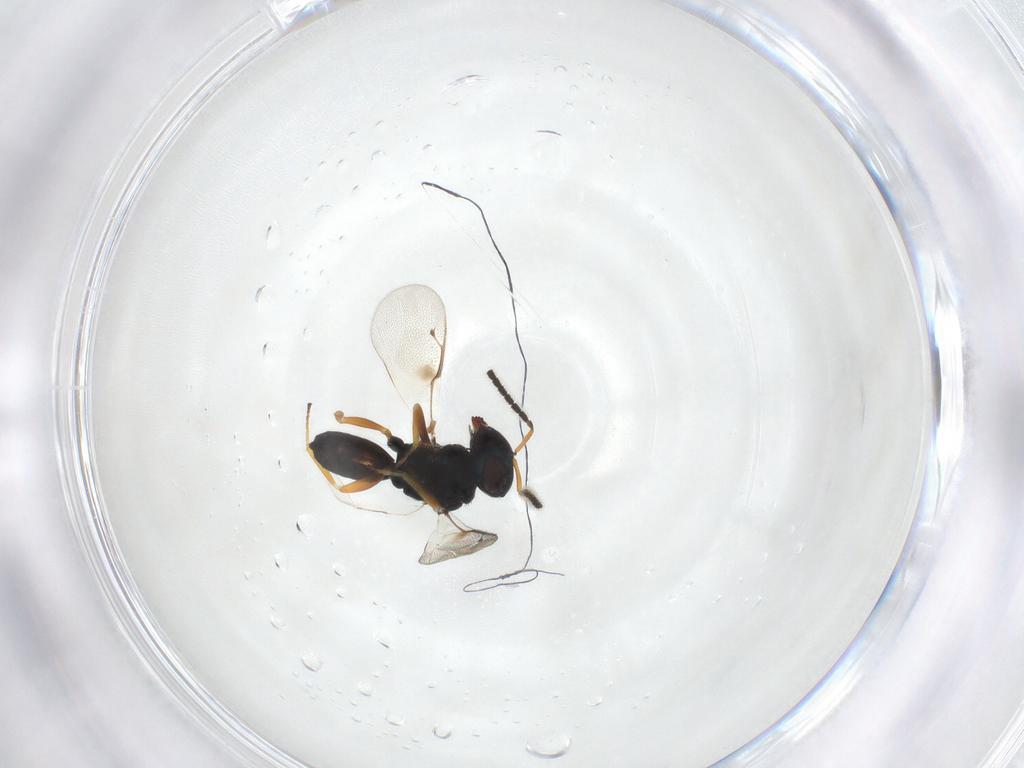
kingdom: Animalia
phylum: Arthropoda
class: Insecta
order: Hymenoptera
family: Pteromalidae
